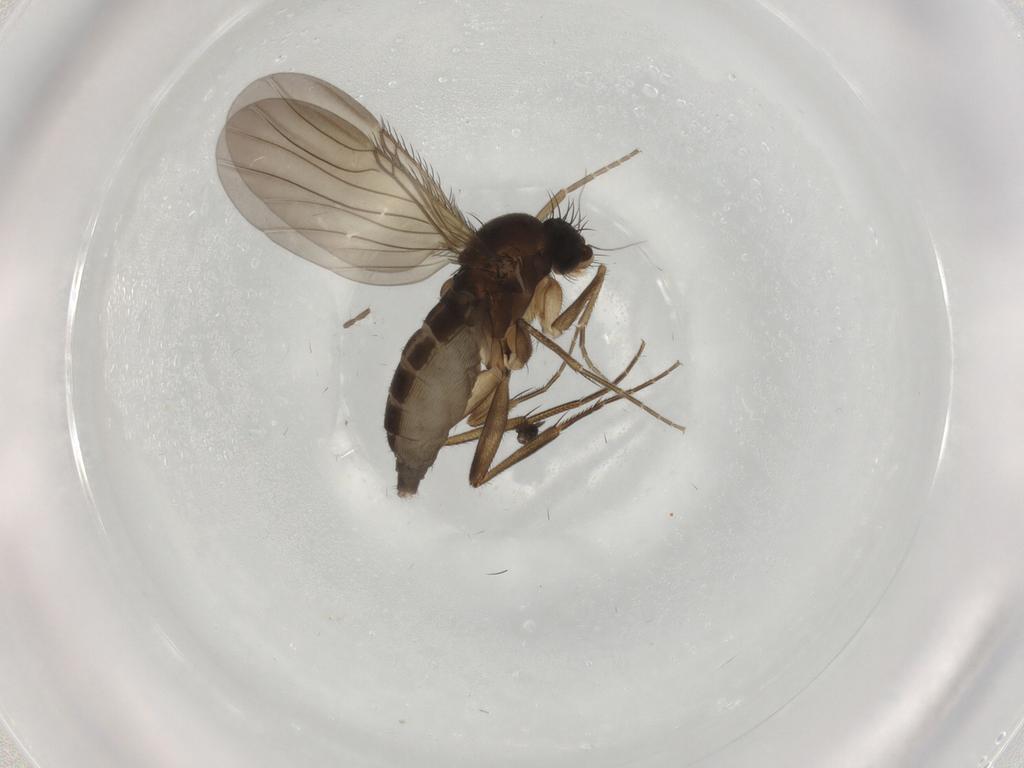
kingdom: Animalia
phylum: Arthropoda
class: Insecta
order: Diptera
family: Phoridae
